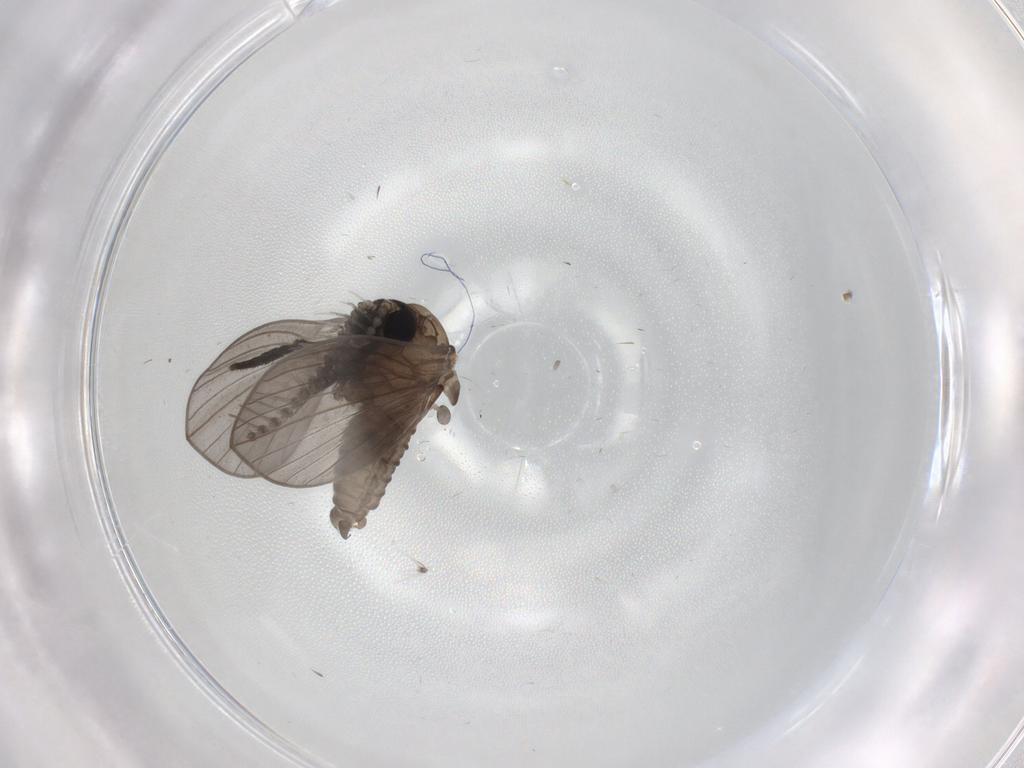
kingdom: Animalia
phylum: Arthropoda
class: Insecta
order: Diptera
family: Psychodidae
